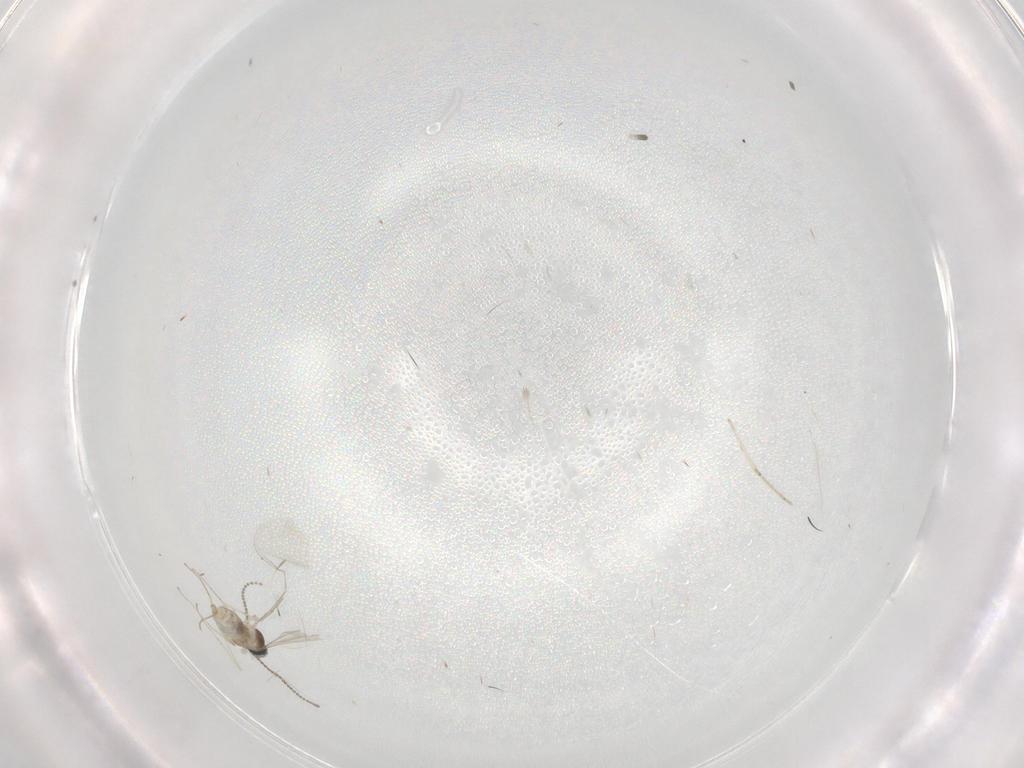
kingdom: Animalia
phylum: Arthropoda
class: Insecta
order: Diptera
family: Cecidomyiidae
